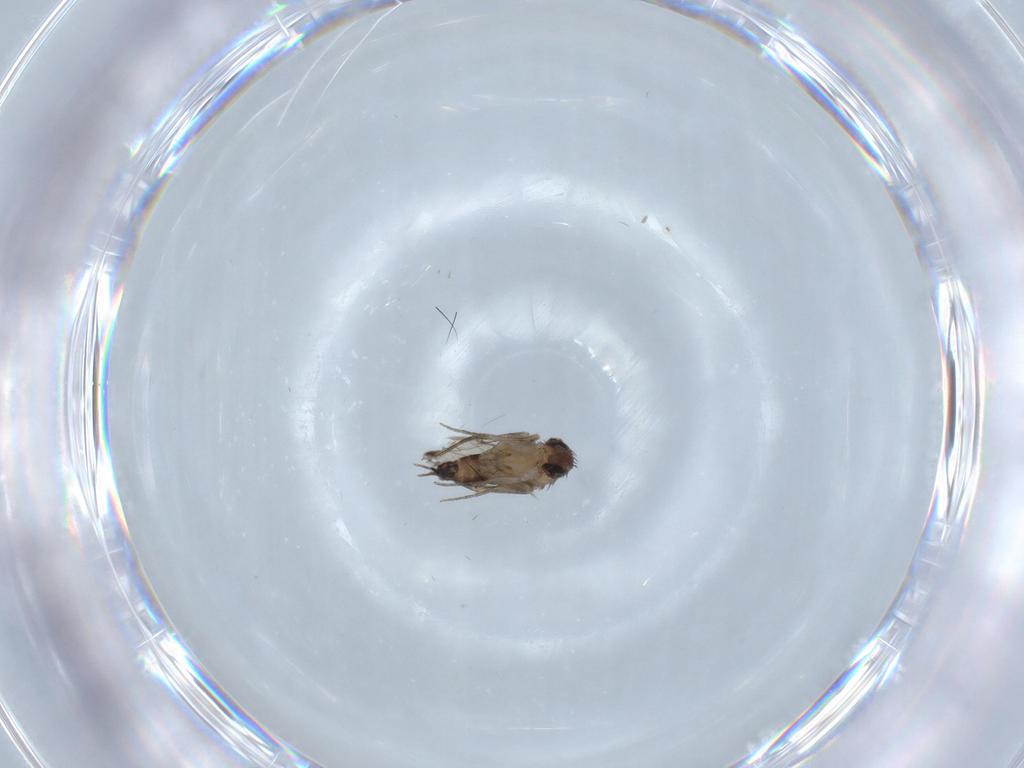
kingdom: Animalia
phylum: Arthropoda
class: Insecta
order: Diptera
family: Phoridae
